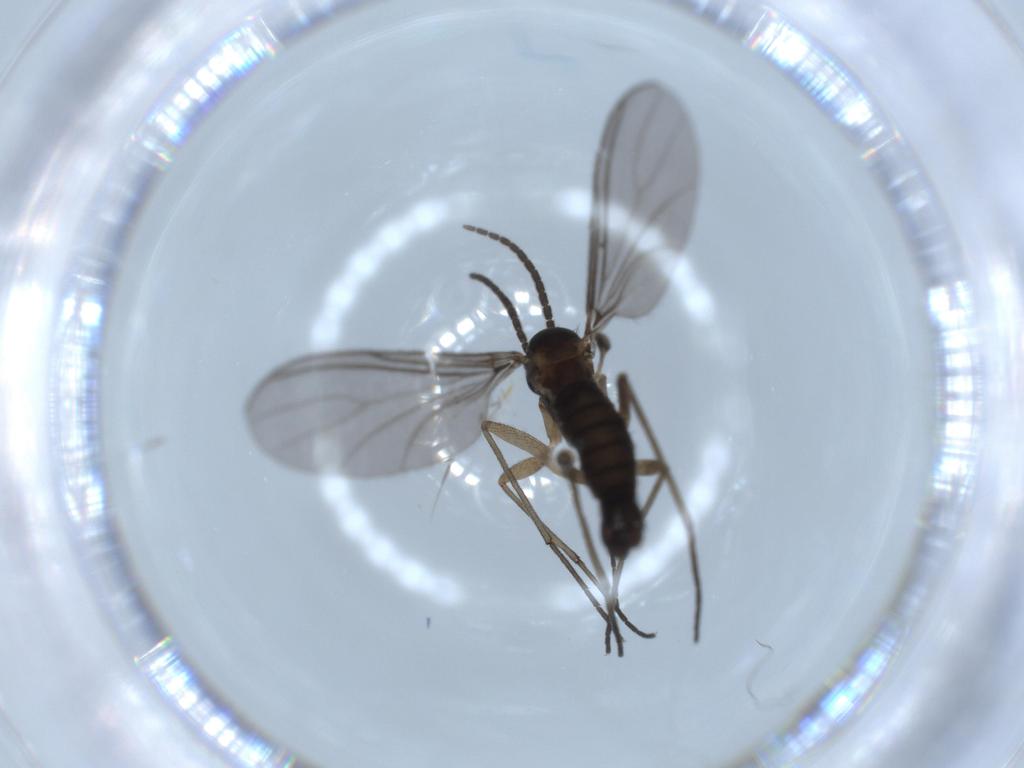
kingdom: Animalia
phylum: Arthropoda
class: Insecta
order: Diptera
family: Sciaridae
